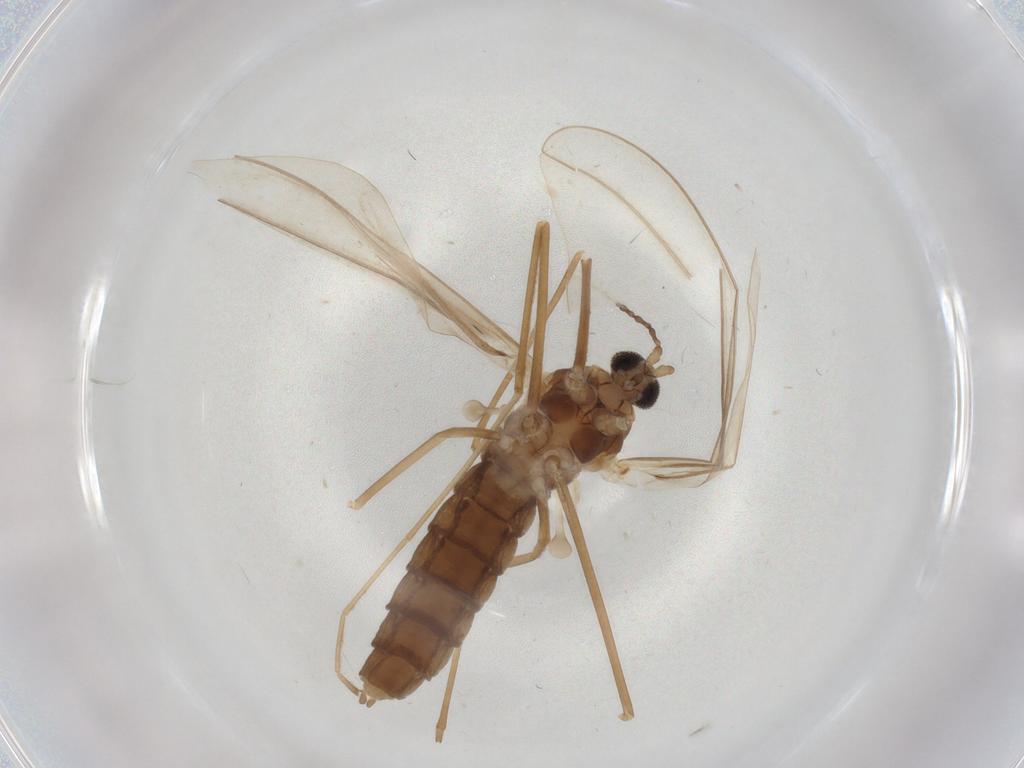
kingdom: Animalia
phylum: Arthropoda
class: Insecta
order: Diptera
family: Cecidomyiidae
